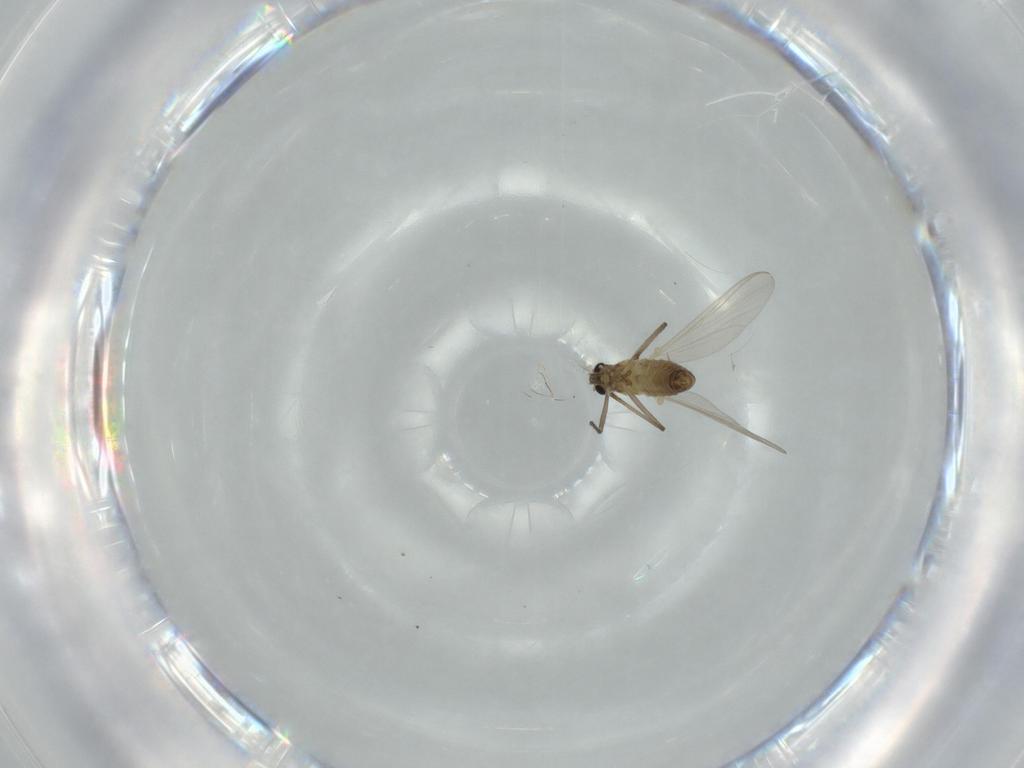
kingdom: Animalia
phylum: Arthropoda
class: Insecta
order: Diptera
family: Chironomidae
